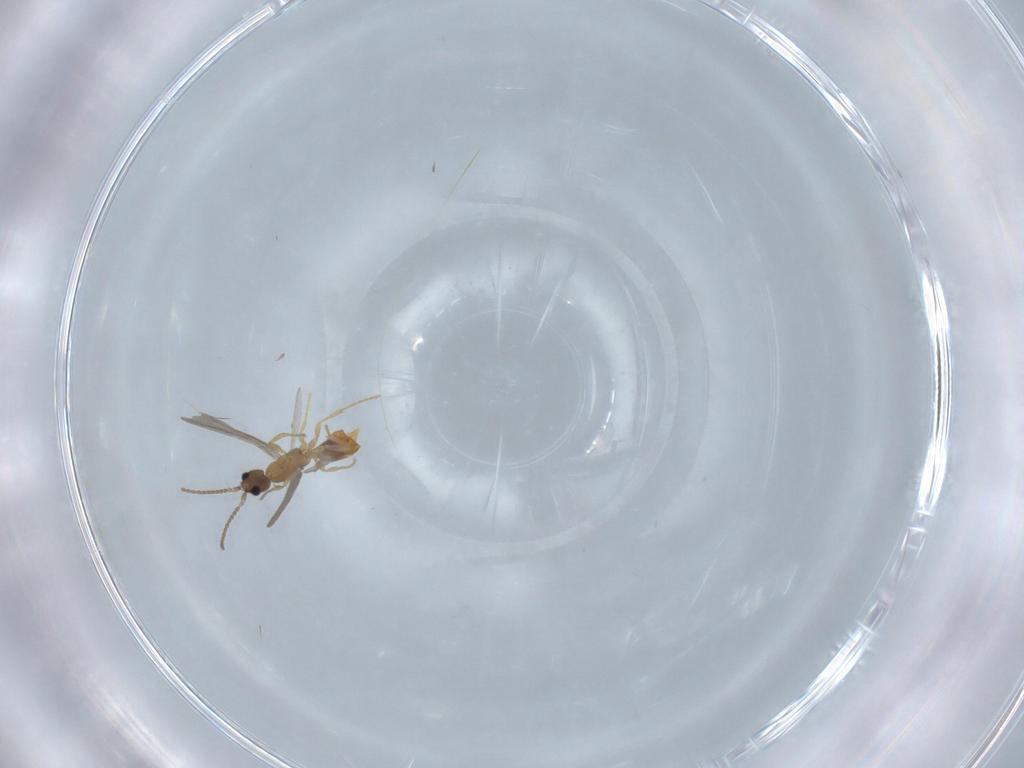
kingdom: Animalia
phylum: Arthropoda
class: Insecta
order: Hymenoptera
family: Formicidae
